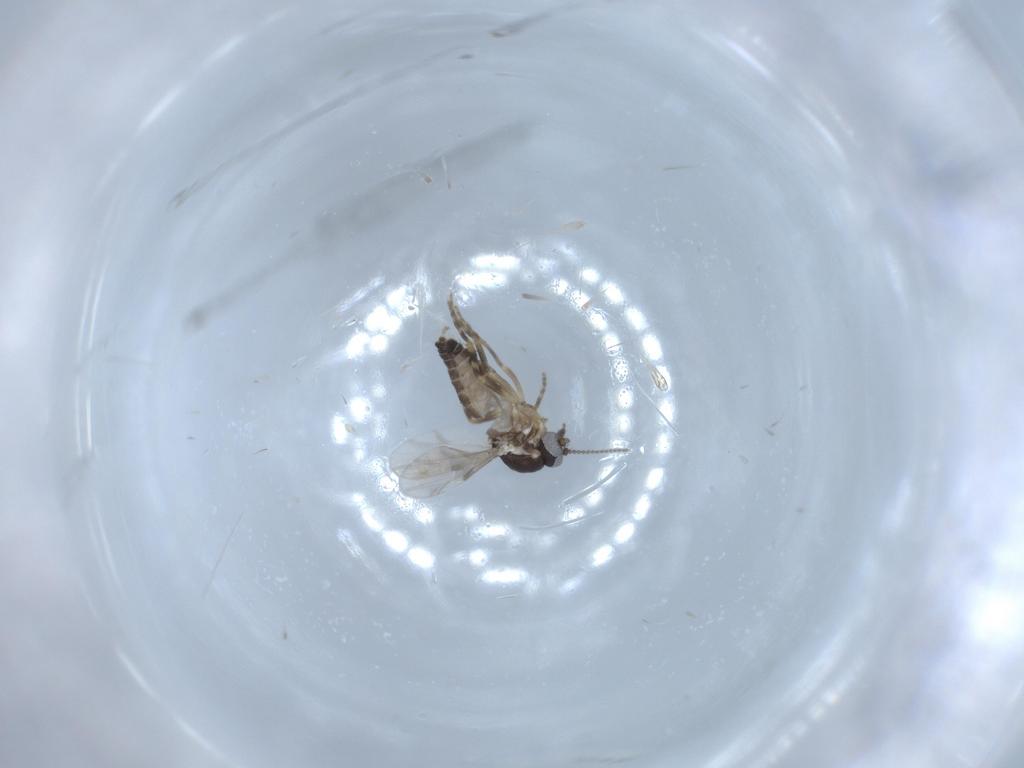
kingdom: Animalia
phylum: Arthropoda
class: Insecta
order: Diptera
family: Ceratopogonidae
